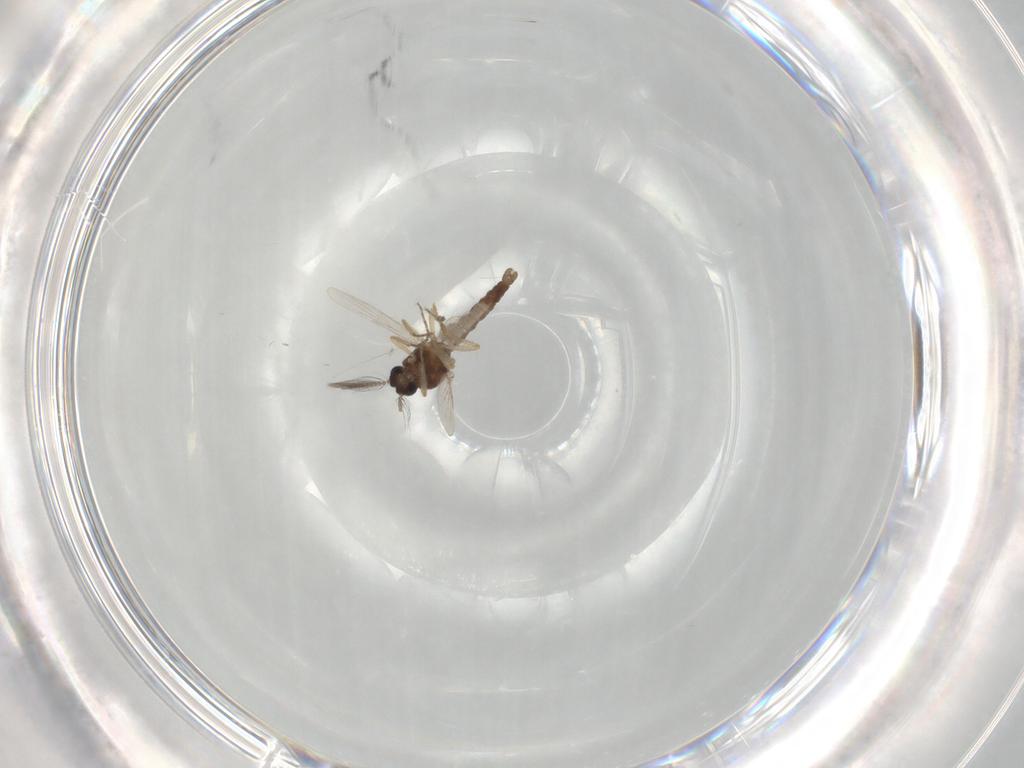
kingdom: Animalia
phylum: Arthropoda
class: Insecta
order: Diptera
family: Ceratopogonidae
